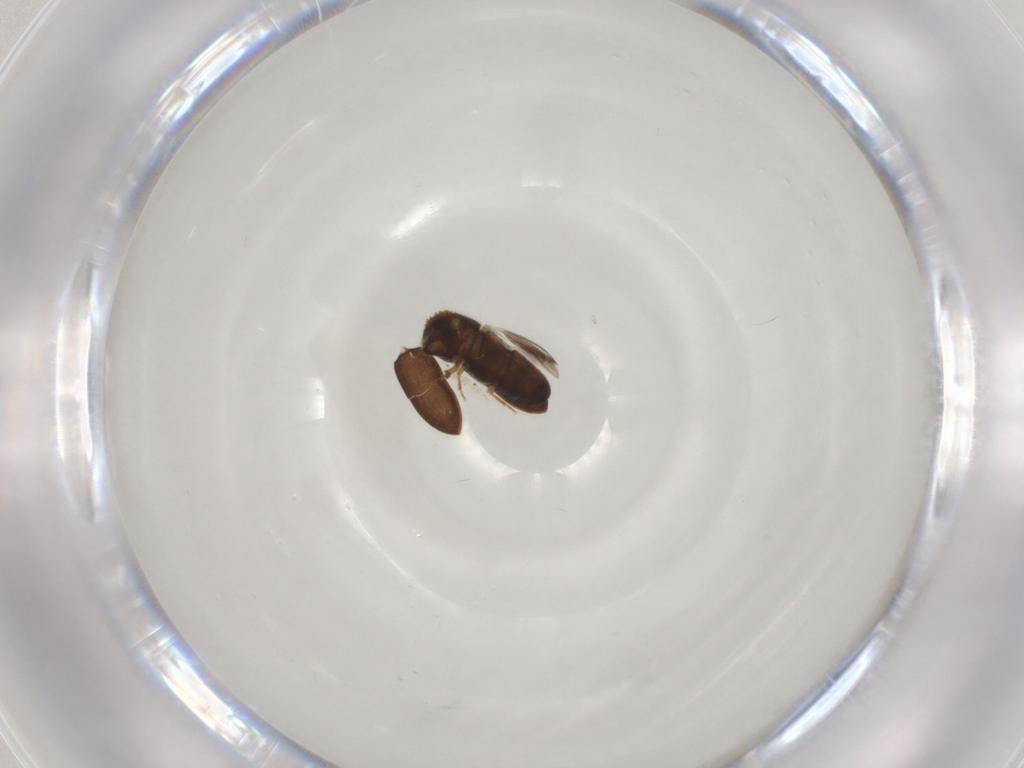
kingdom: Animalia
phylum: Arthropoda
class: Insecta
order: Coleoptera
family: Curculionidae
